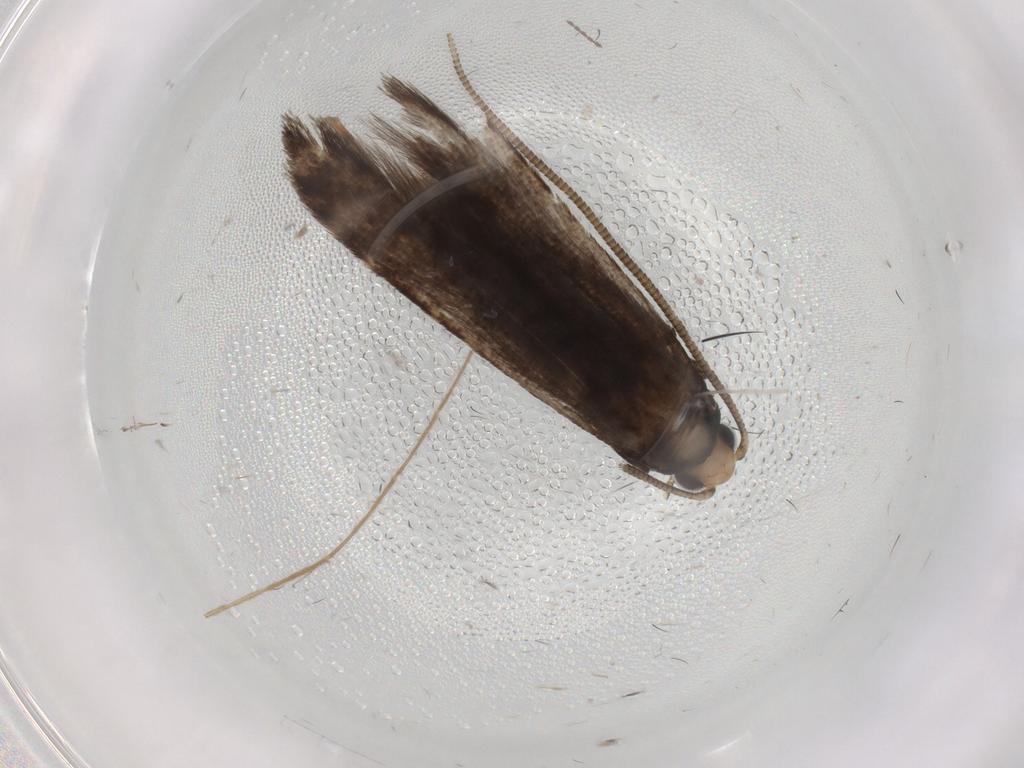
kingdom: Animalia
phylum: Arthropoda
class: Insecta
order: Lepidoptera
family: Tineidae
